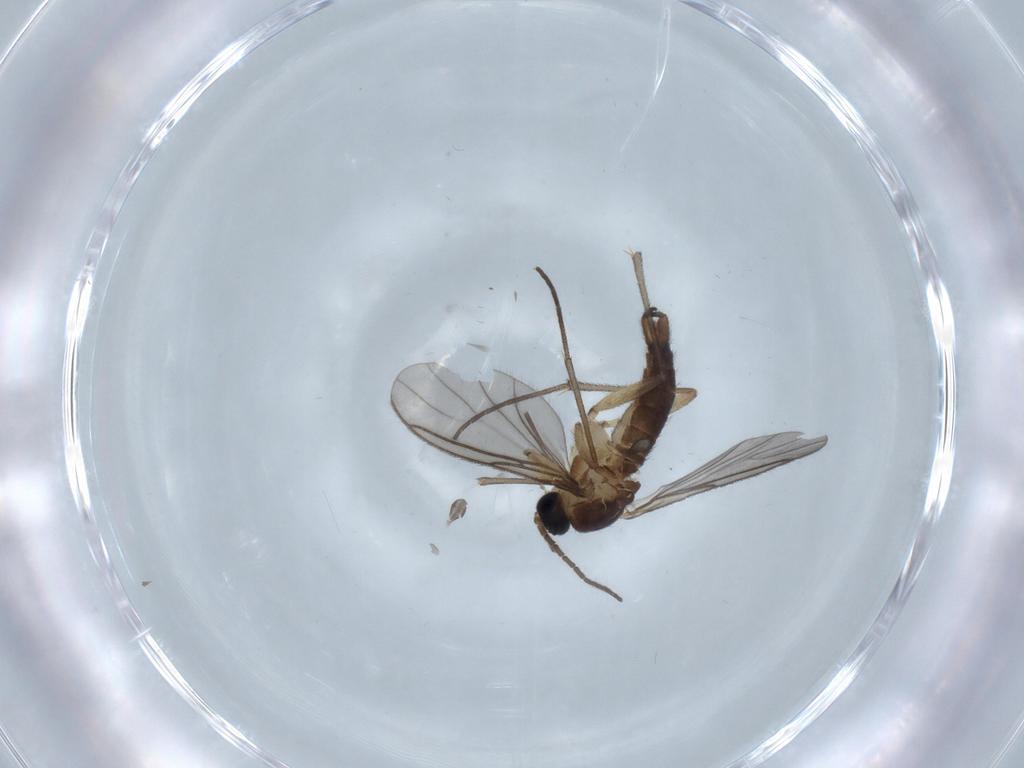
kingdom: Animalia
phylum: Arthropoda
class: Insecta
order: Diptera
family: Sciaridae
